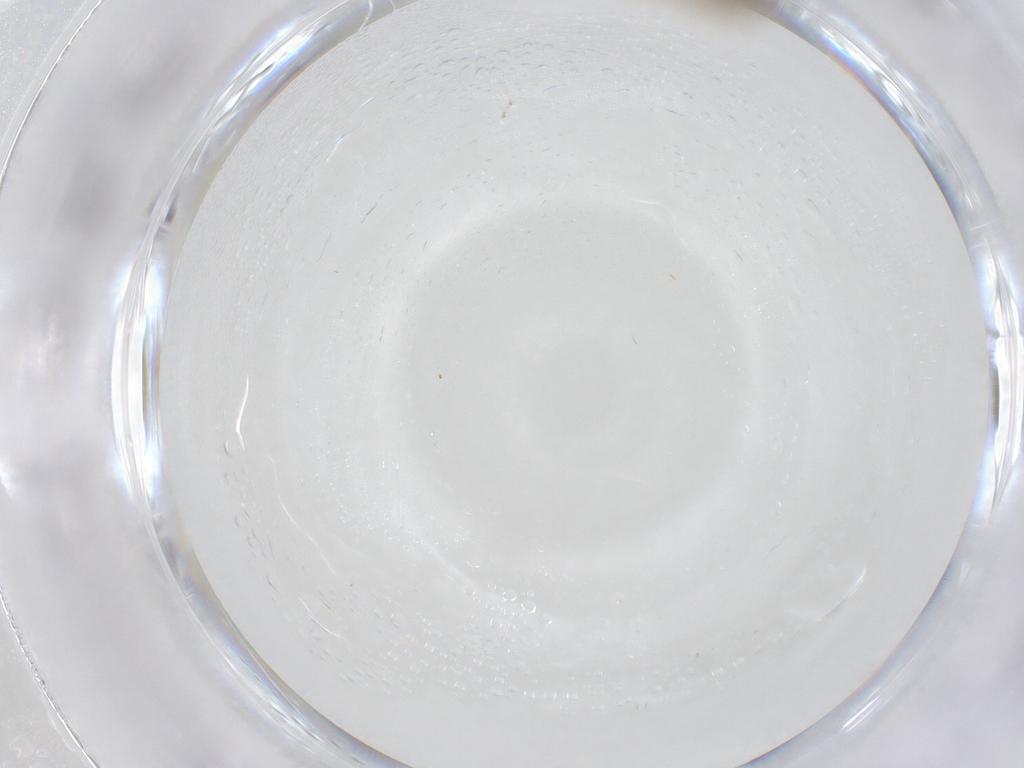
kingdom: Animalia
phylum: Arthropoda
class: Insecta
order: Diptera
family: Chironomidae
